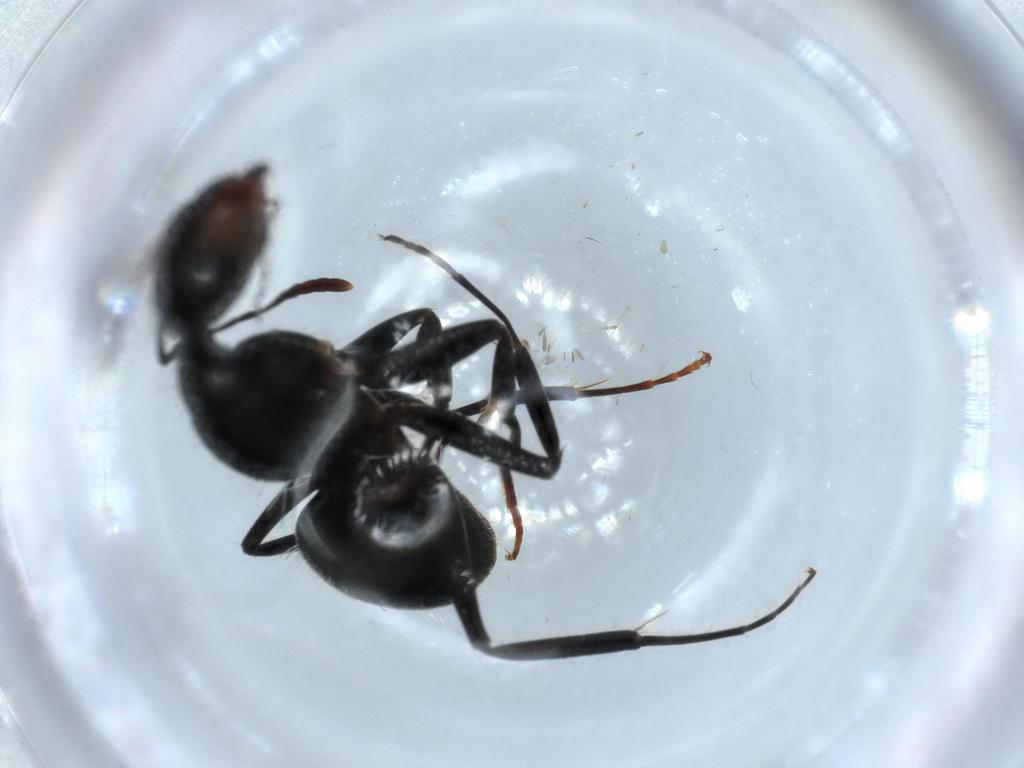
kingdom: Animalia
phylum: Arthropoda
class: Insecta
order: Hymenoptera
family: Formicidae
